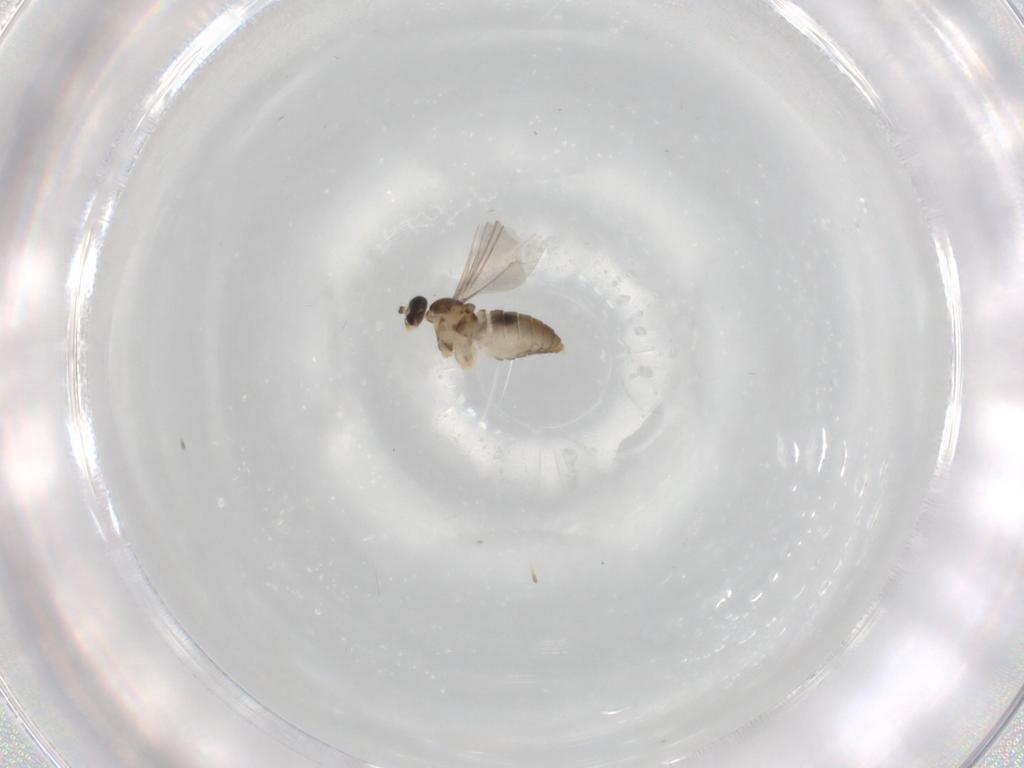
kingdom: Animalia
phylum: Arthropoda
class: Insecta
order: Diptera
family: Cecidomyiidae
